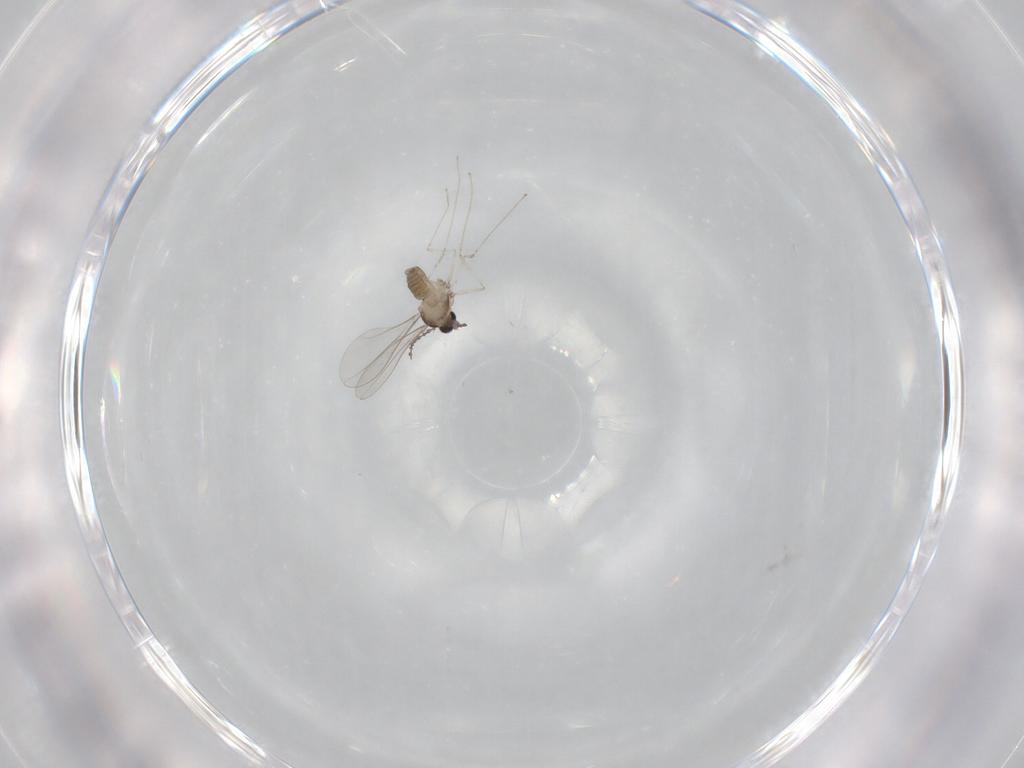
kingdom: Animalia
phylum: Arthropoda
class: Insecta
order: Diptera
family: Cecidomyiidae
